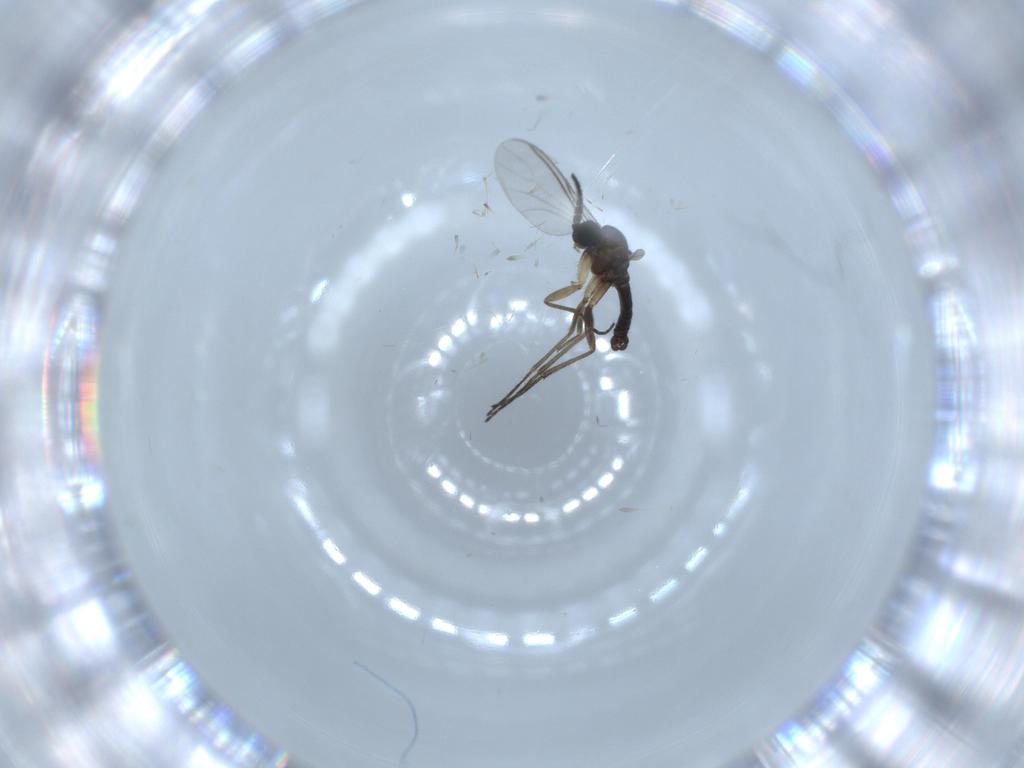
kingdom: Animalia
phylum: Arthropoda
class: Insecta
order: Diptera
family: Sciaridae
